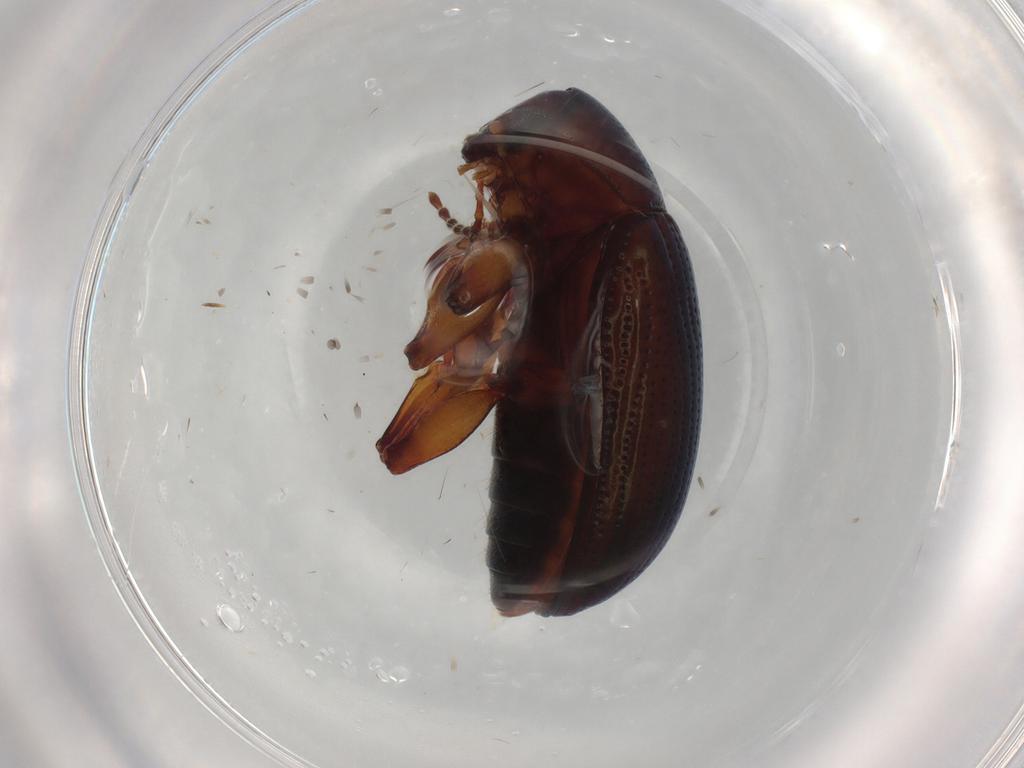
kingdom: Animalia
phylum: Arthropoda
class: Insecta
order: Coleoptera
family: Chrysomelidae
